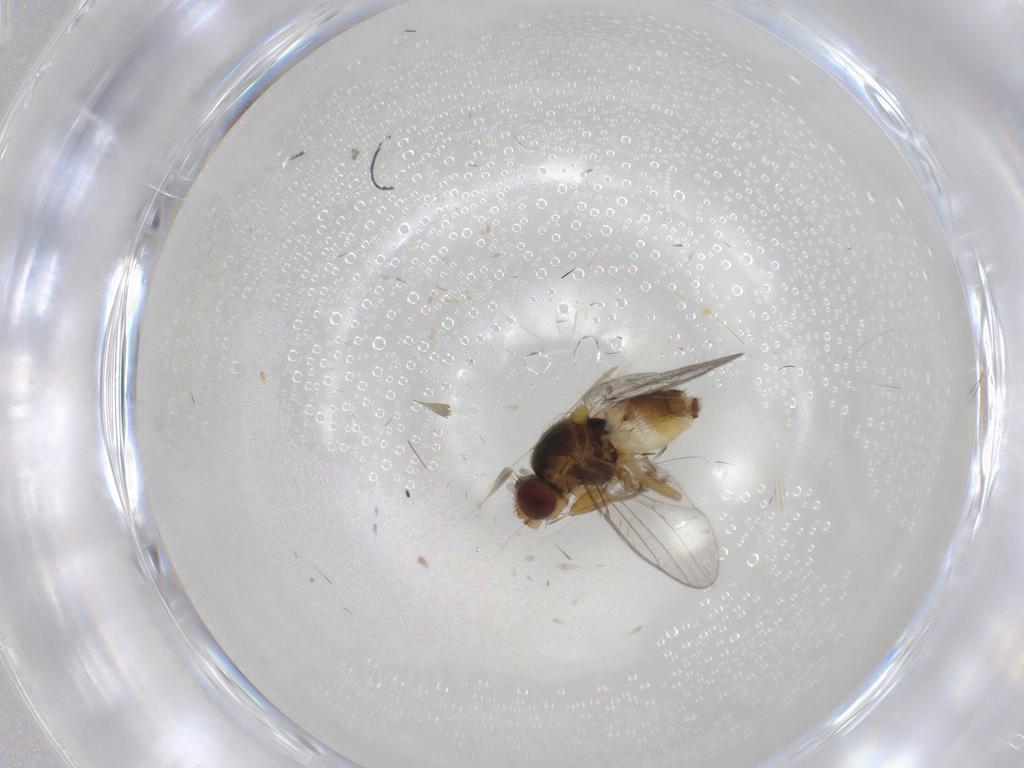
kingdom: Animalia
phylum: Arthropoda
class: Insecta
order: Diptera
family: Chloropidae
